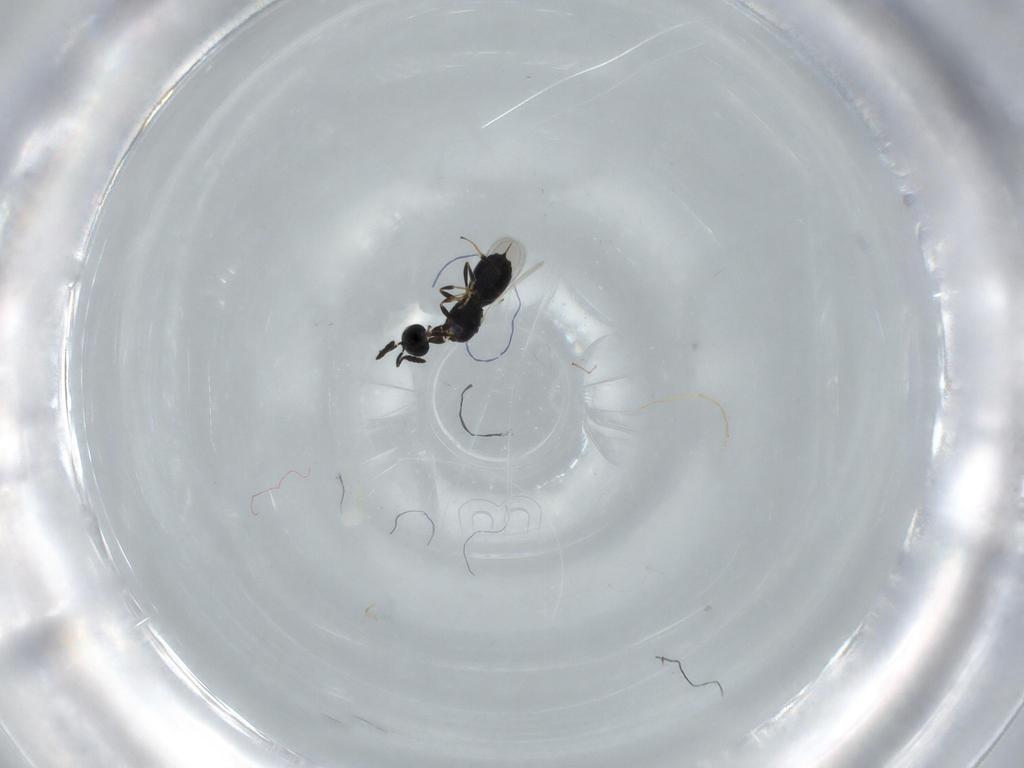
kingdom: Animalia
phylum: Arthropoda
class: Insecta
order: Hymenoptera
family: Scelionidae
